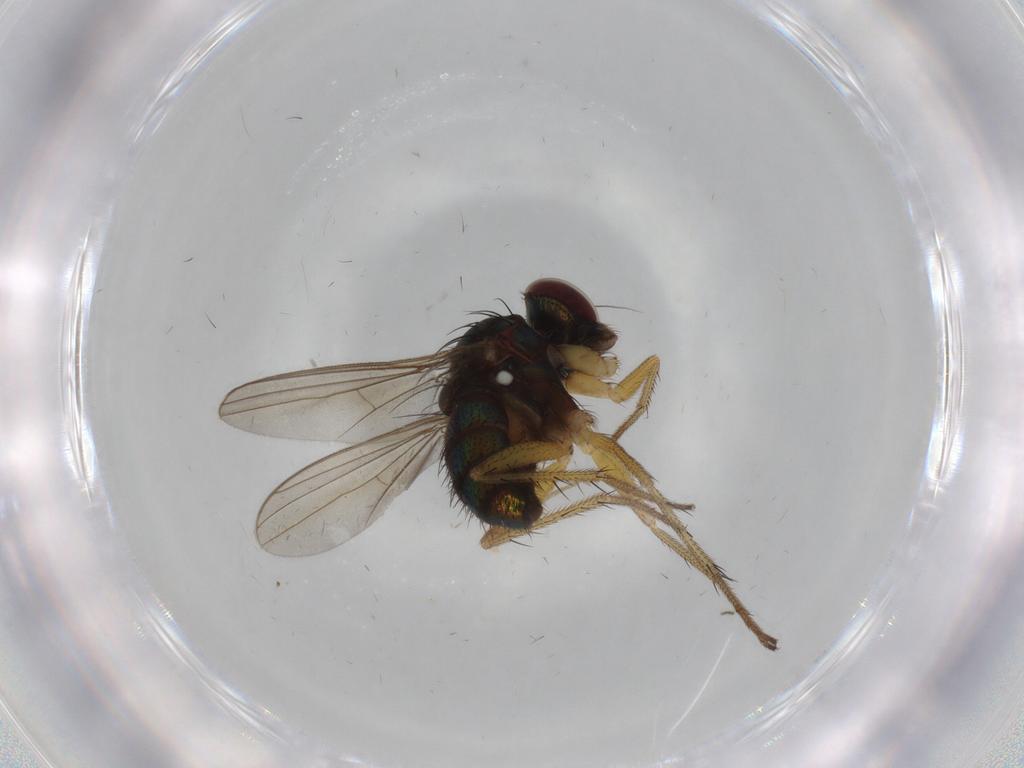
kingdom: Animalia
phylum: Arthropoda
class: Insecta
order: Diptera
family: Dolichopodidae
